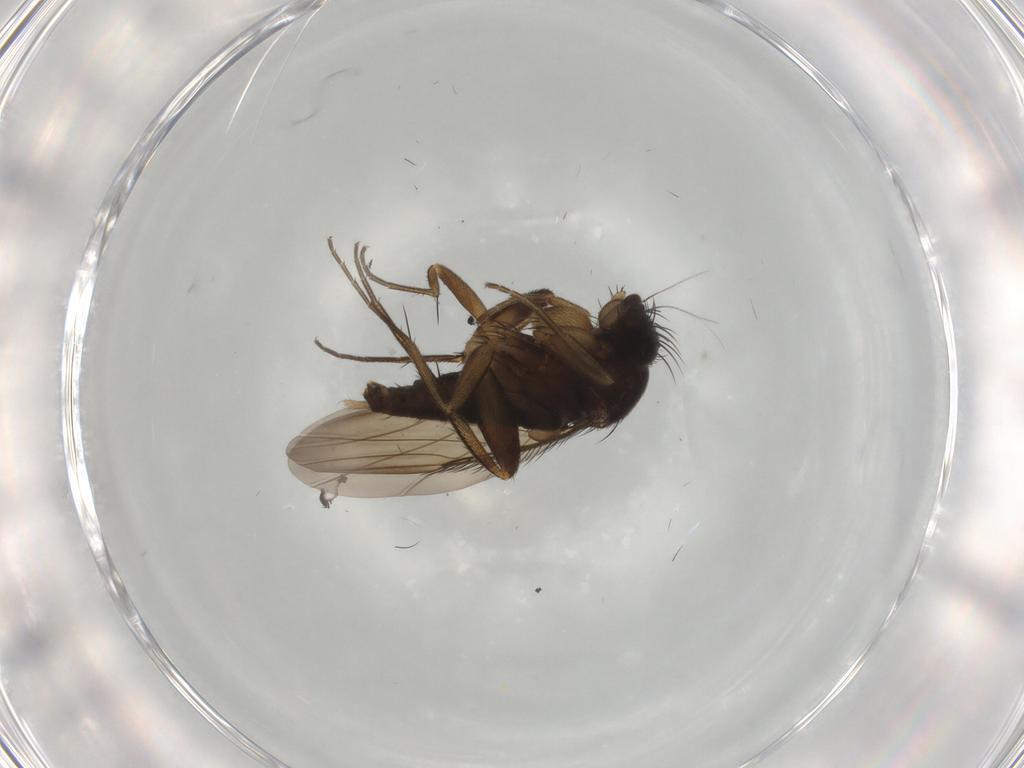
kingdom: Animalia
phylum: Arthropoda
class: Insecta
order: Diptera
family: Phoridae
